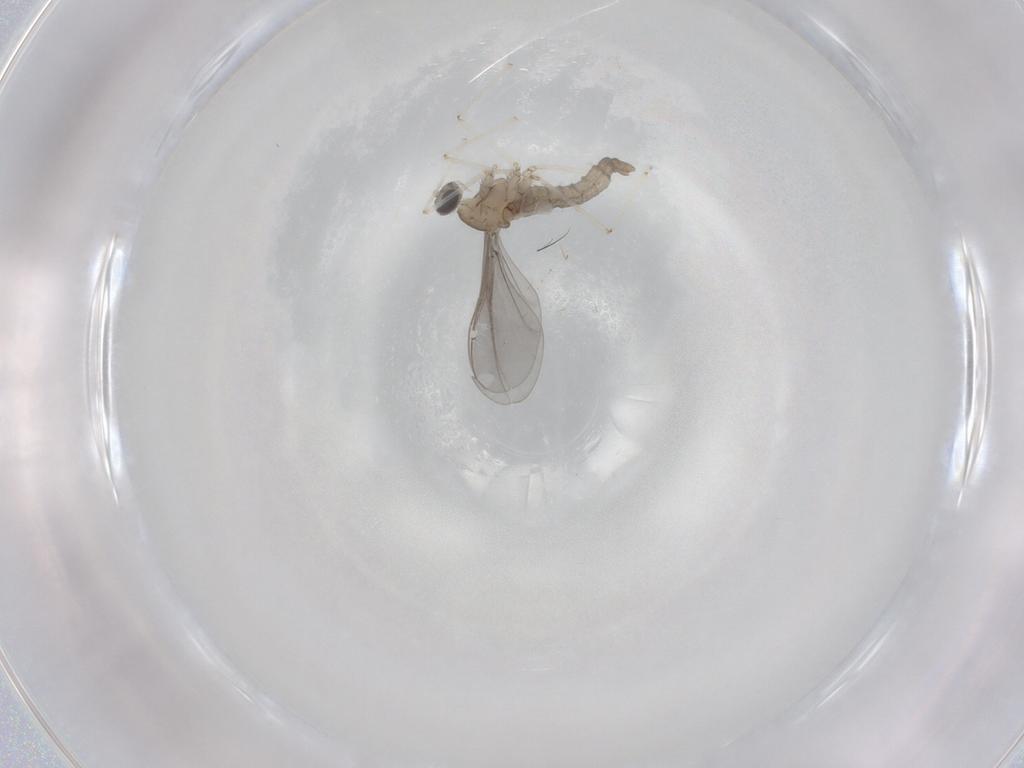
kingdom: Animalia
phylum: Arthropoda
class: Insecta
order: Diptera
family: Cecidomyiidae
